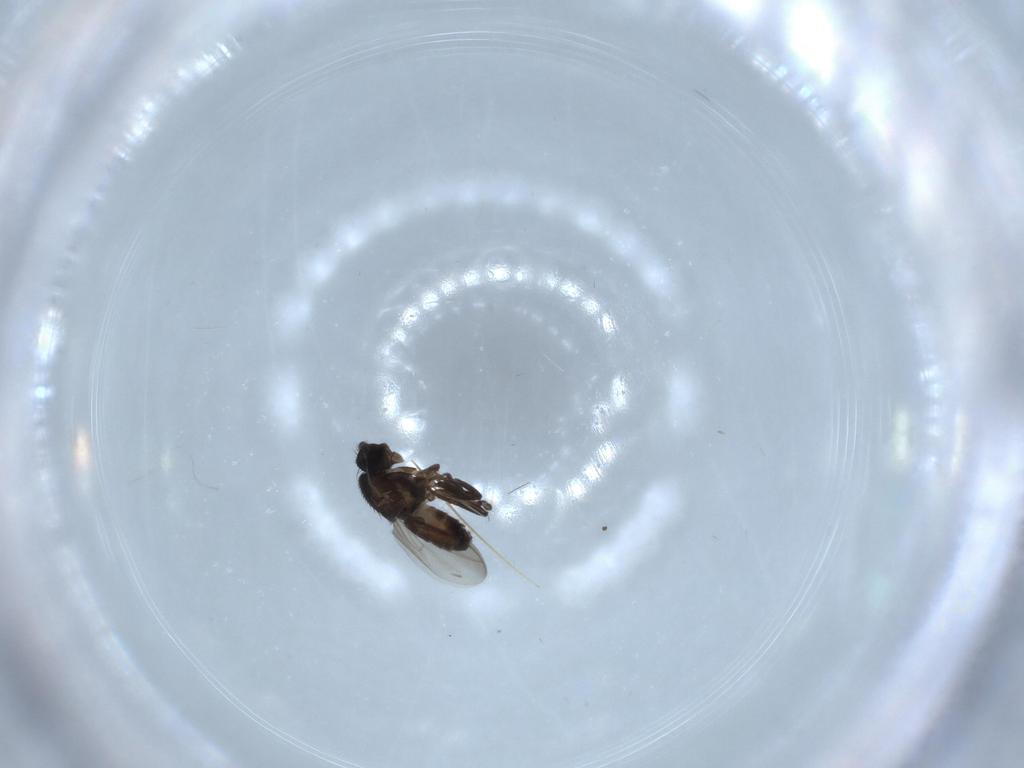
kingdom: Animalia
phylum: Arthropoda
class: Insecta
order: Diptera
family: Sphaeroceridae
